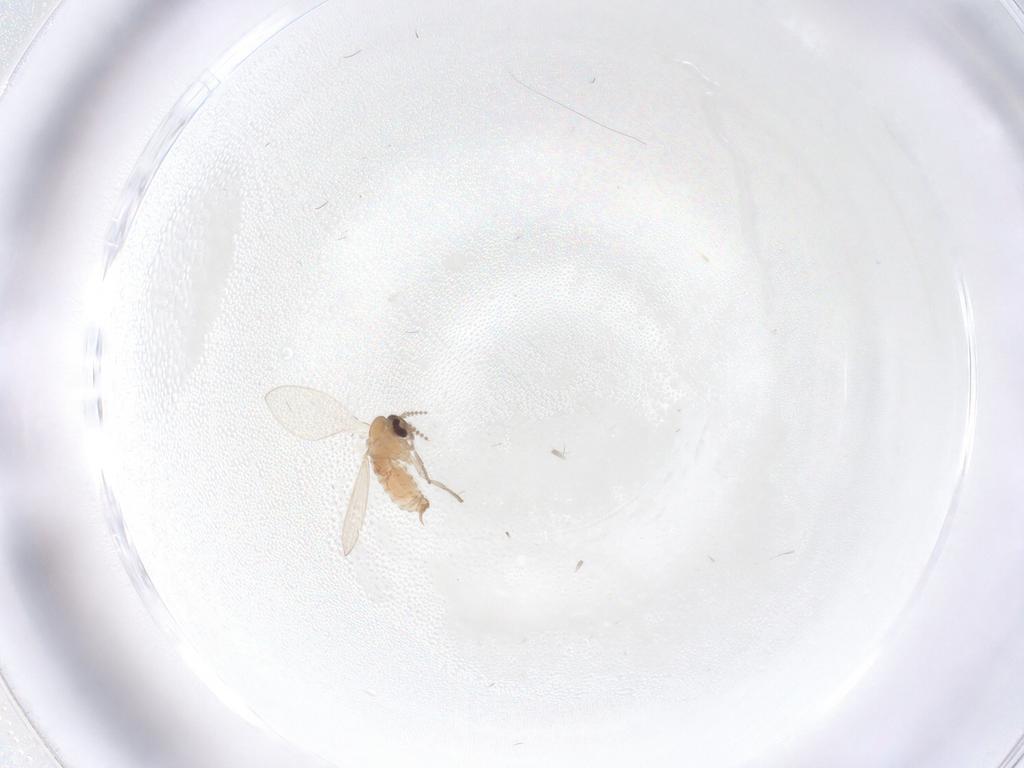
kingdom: Animalia
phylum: Arthropoda
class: Insecta
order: Diptera
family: Psychodidae
